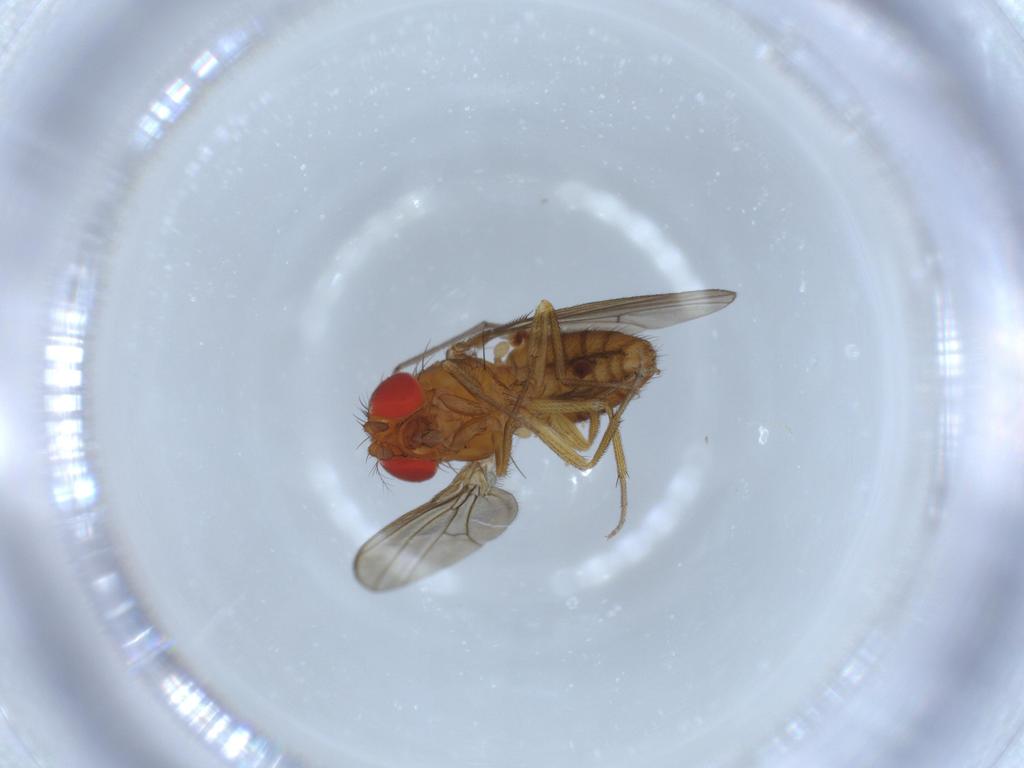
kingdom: Animalia
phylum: Arthropoda
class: Insecta
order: Diptera
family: Drosophilidae
